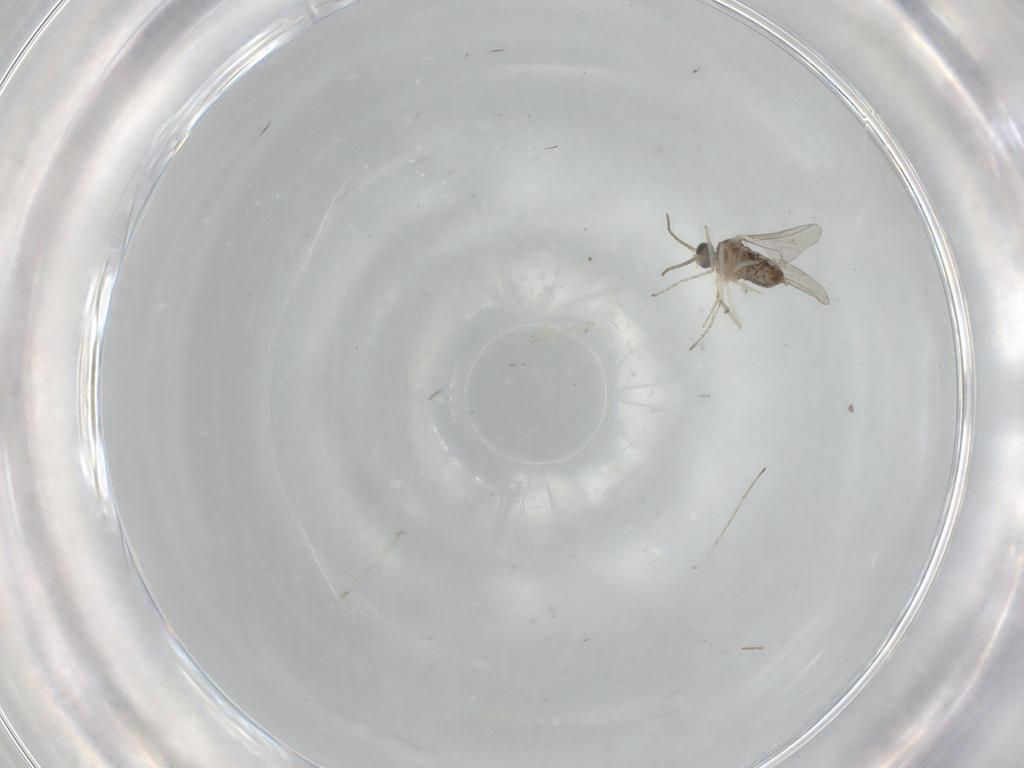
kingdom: Animalia
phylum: Arthropoda
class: Insecta
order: Diptera
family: Cecidomyiidae
